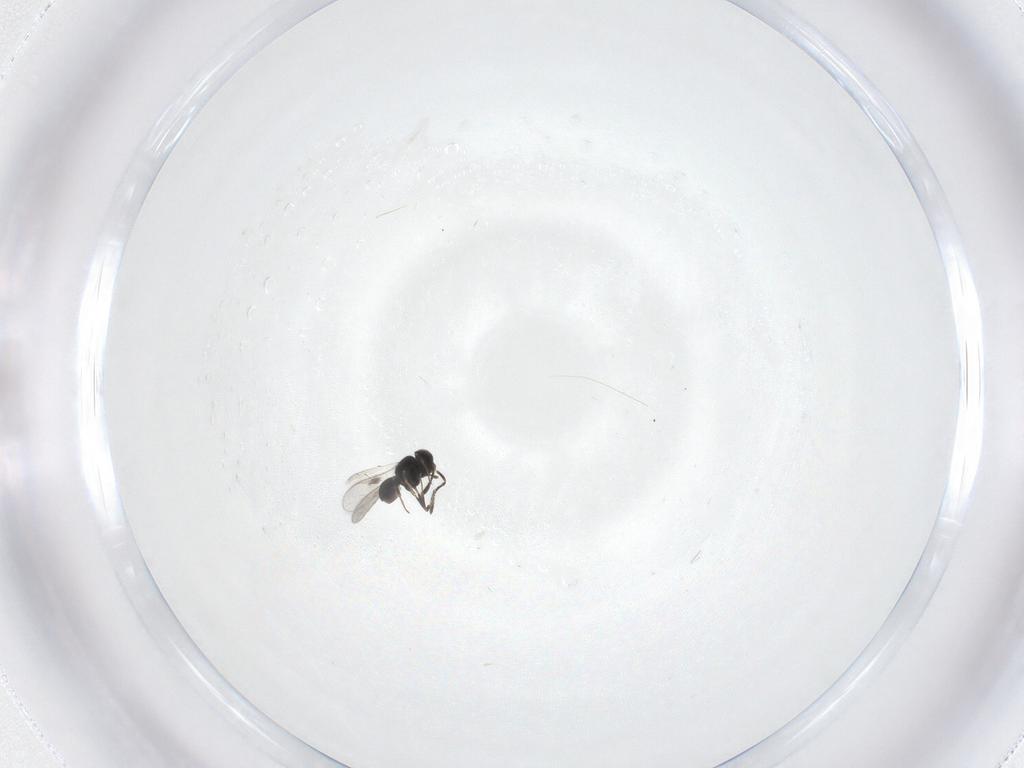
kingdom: Animalia
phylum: Arthropoda
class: Insecta
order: Hymenoptera
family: Scelionidae
